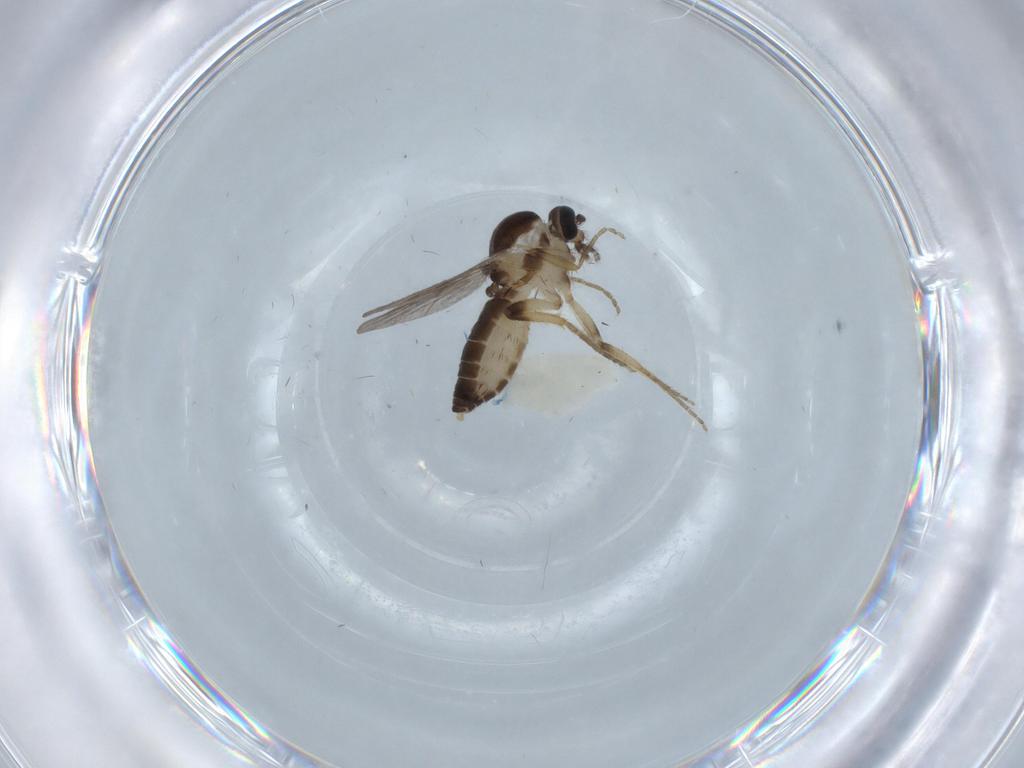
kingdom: Animalia
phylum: Arthropoda
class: Insecta
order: Diptera
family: Ceratopogonidae
